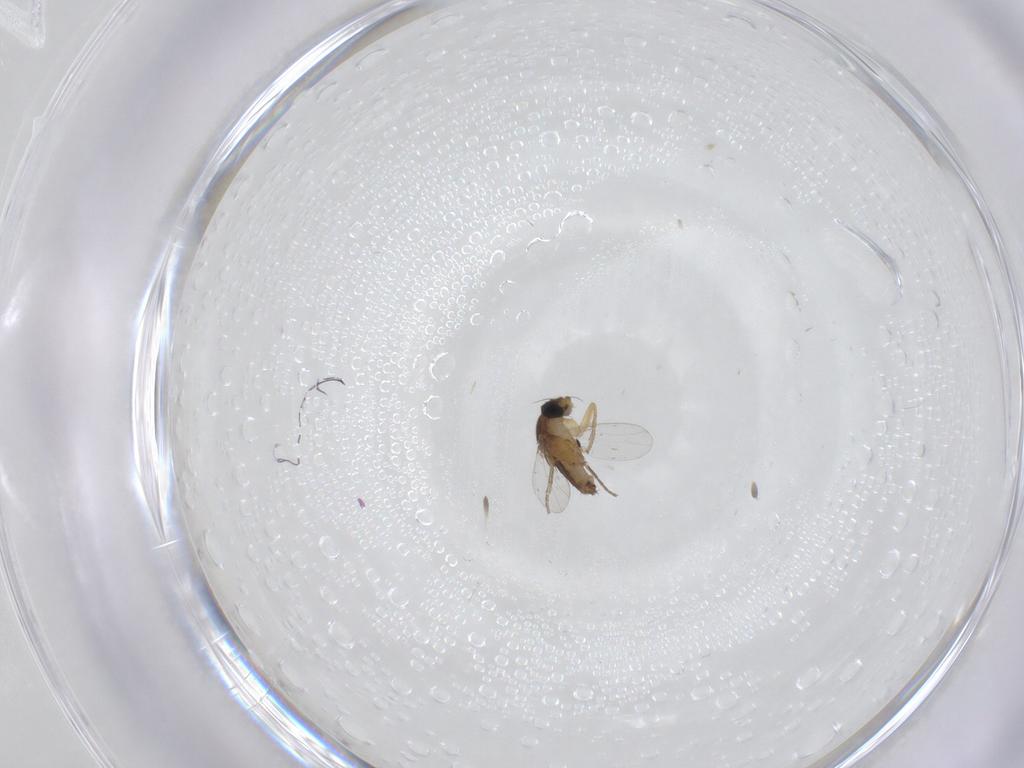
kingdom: Animalia
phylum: Arthropoda
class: Insecta
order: Diptera
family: Phoridae
